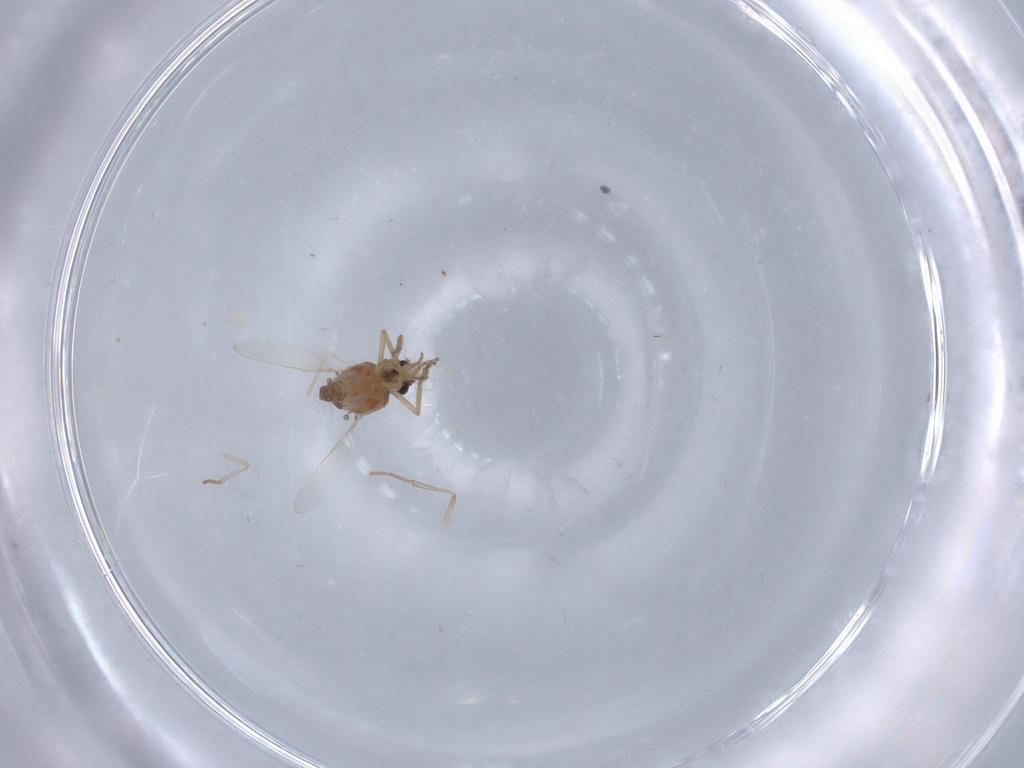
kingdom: Animalia
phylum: Arthropoda
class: Insecta
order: Diptera
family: Ceratopogonidae
